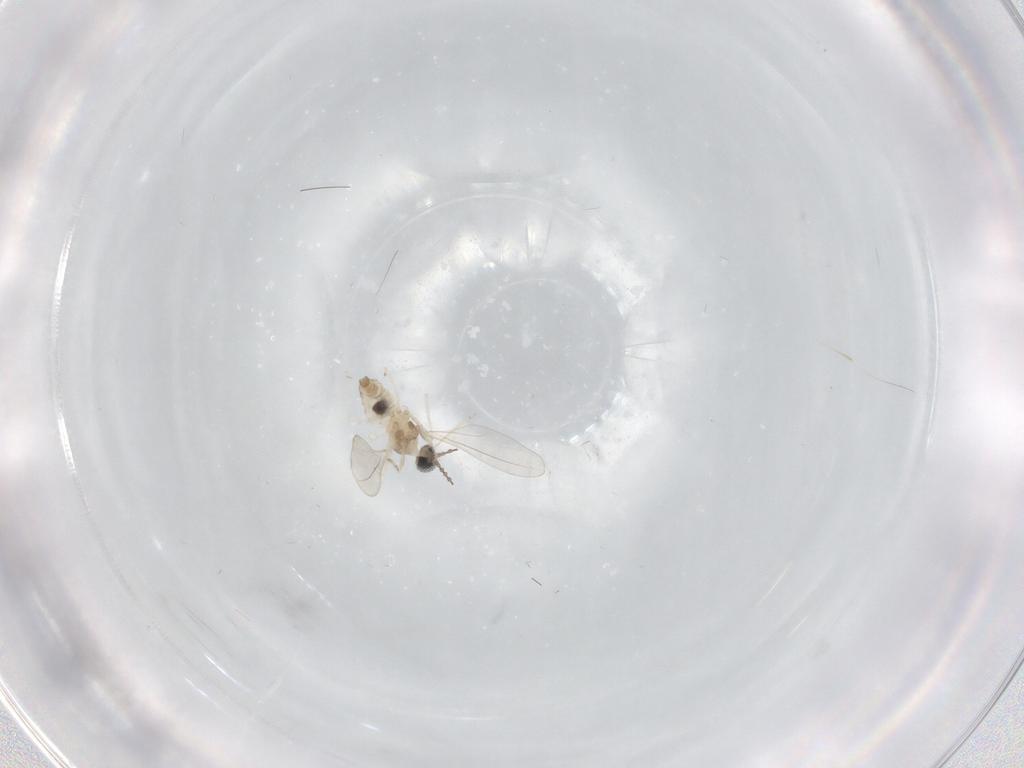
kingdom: Animalia
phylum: Arthropoda
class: Insecta
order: Diptera
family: Cecidomyiidae
